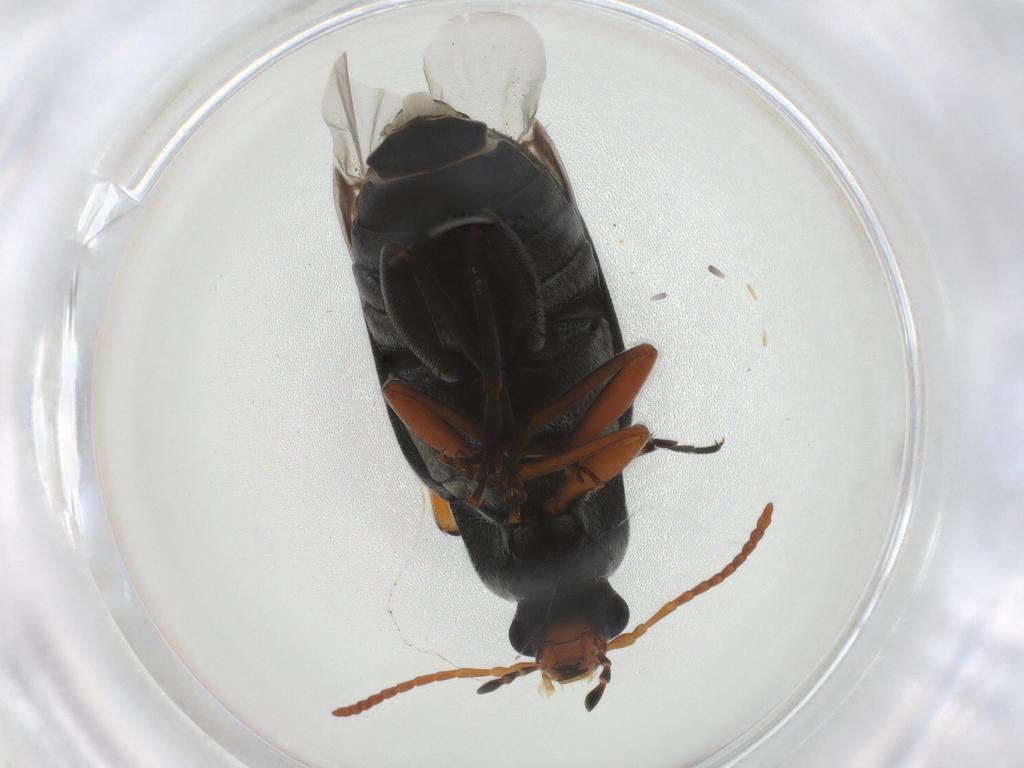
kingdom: Animalia
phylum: Arthropoda
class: Insecta
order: Coleoptera
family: Mycteridae
